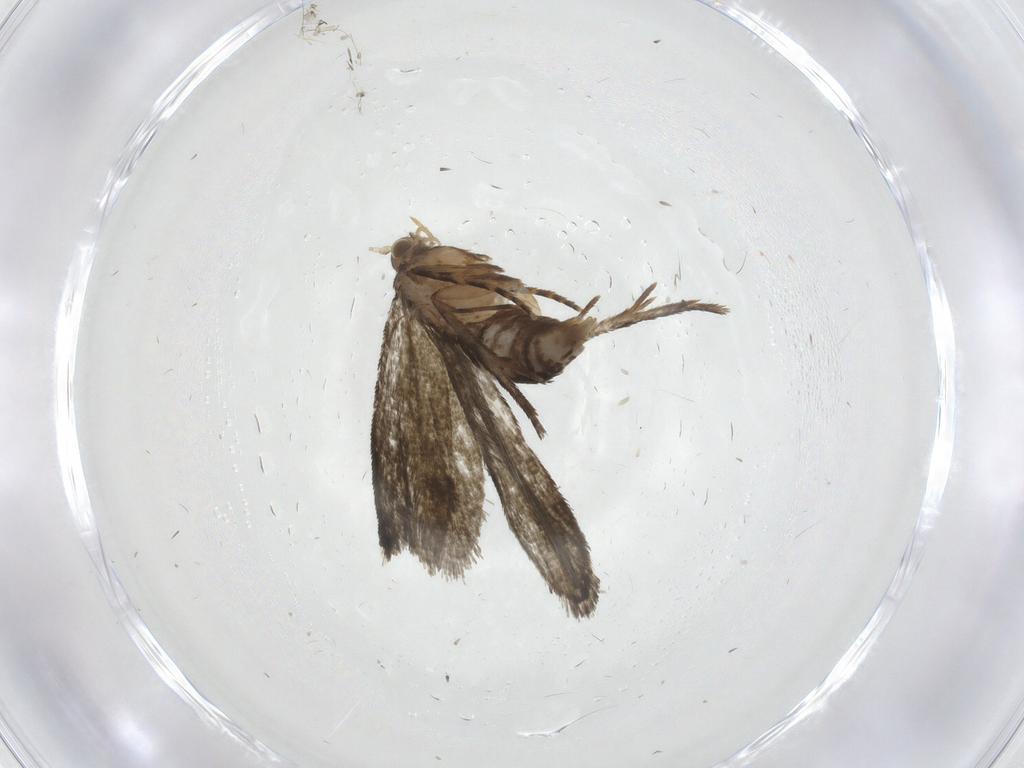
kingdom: Animalia
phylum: Arthropoda
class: Insecta
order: Lepidoptera
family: Tineidae
